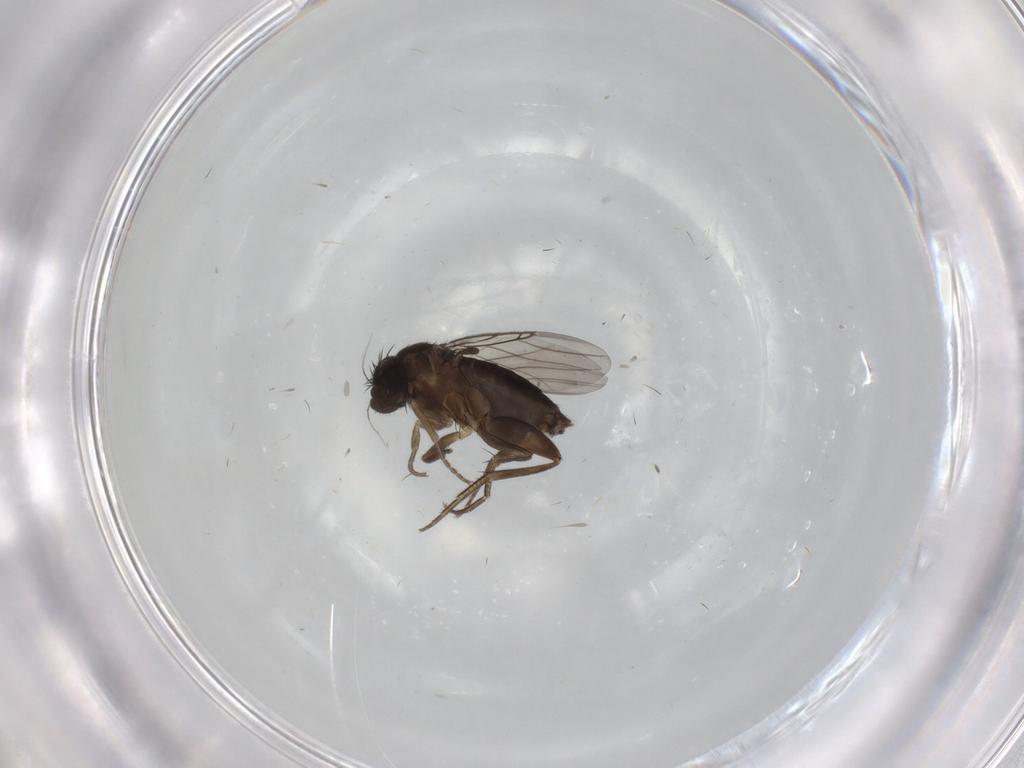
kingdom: Animalia
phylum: Arthropoda
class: Insecta
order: Diptera
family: Phoridae
